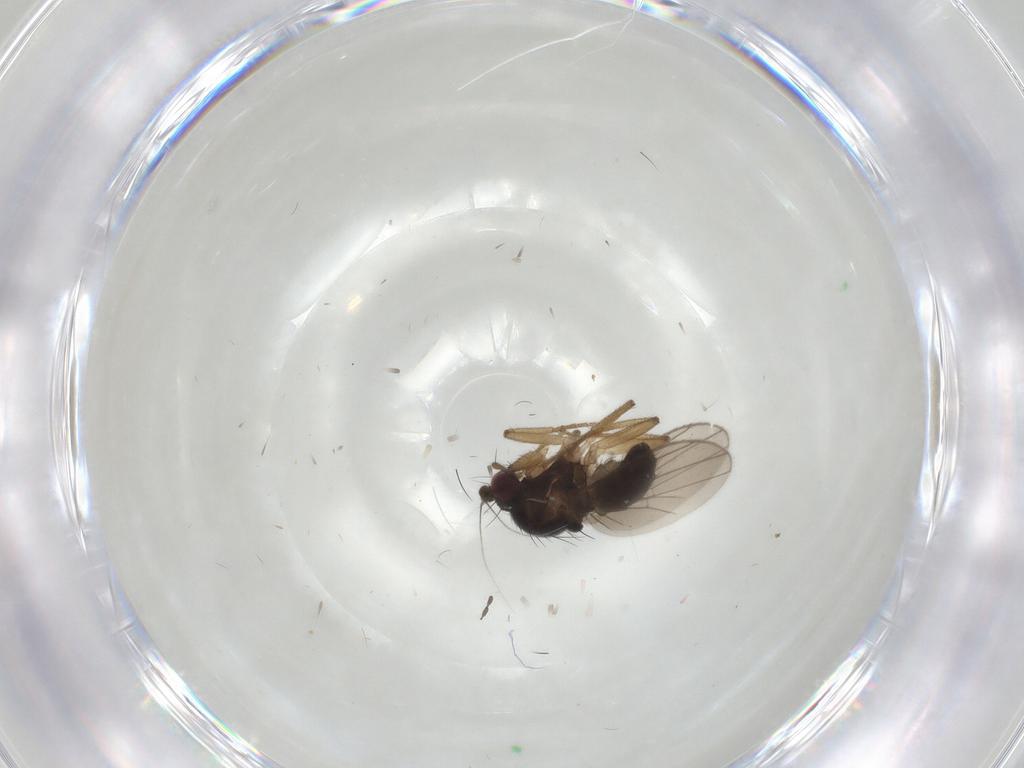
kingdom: Animalia
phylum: Arthropoda
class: Insecta
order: Diptera
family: Inbiomyiidae
